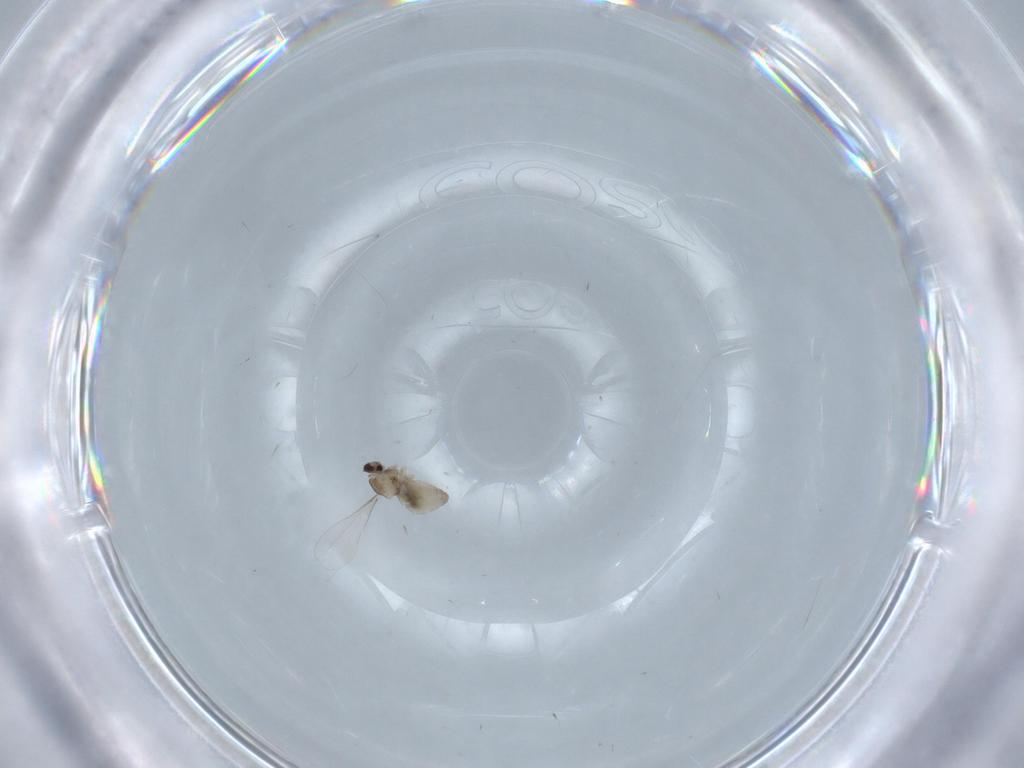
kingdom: Animalia
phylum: Arthropoda
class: Insecta
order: Diptera
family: Cecidomyiidae
